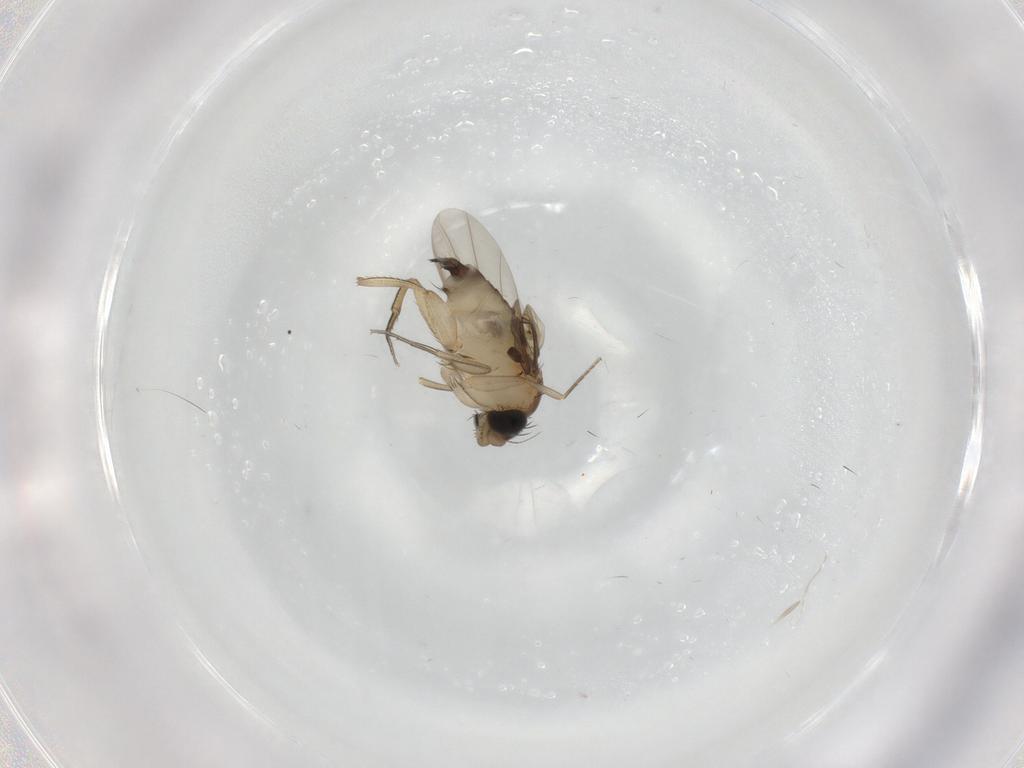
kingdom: Animalia
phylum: Arthropoda
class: Insecta
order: Diptera
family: Phoridae
